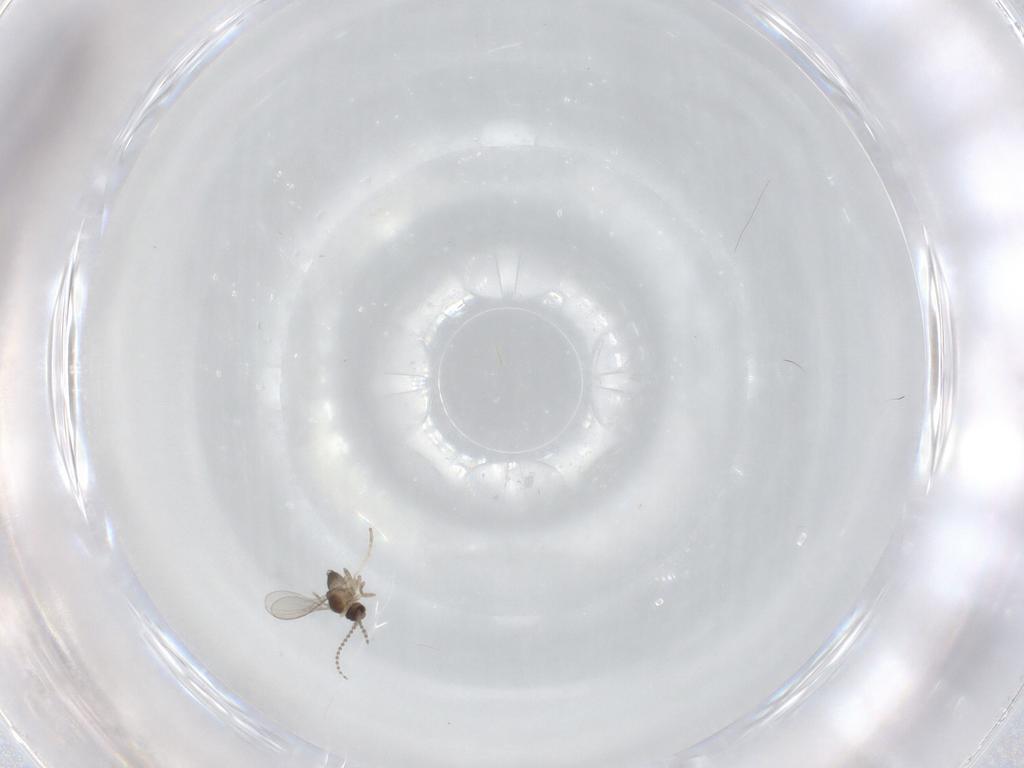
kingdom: Animalia
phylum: Arthropoda
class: Insecta
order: Diptera
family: Cecidomyiidae
